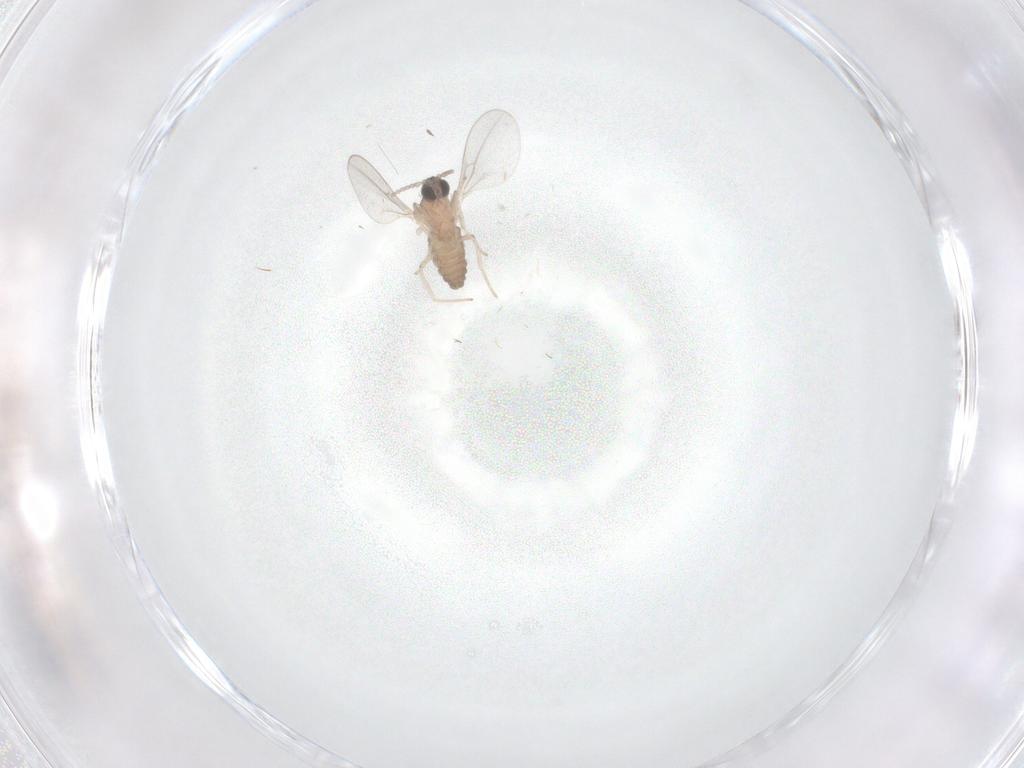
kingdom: Animalia
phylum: Arthropoda
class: Insecta
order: Diptera
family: Cecidomyiidae
